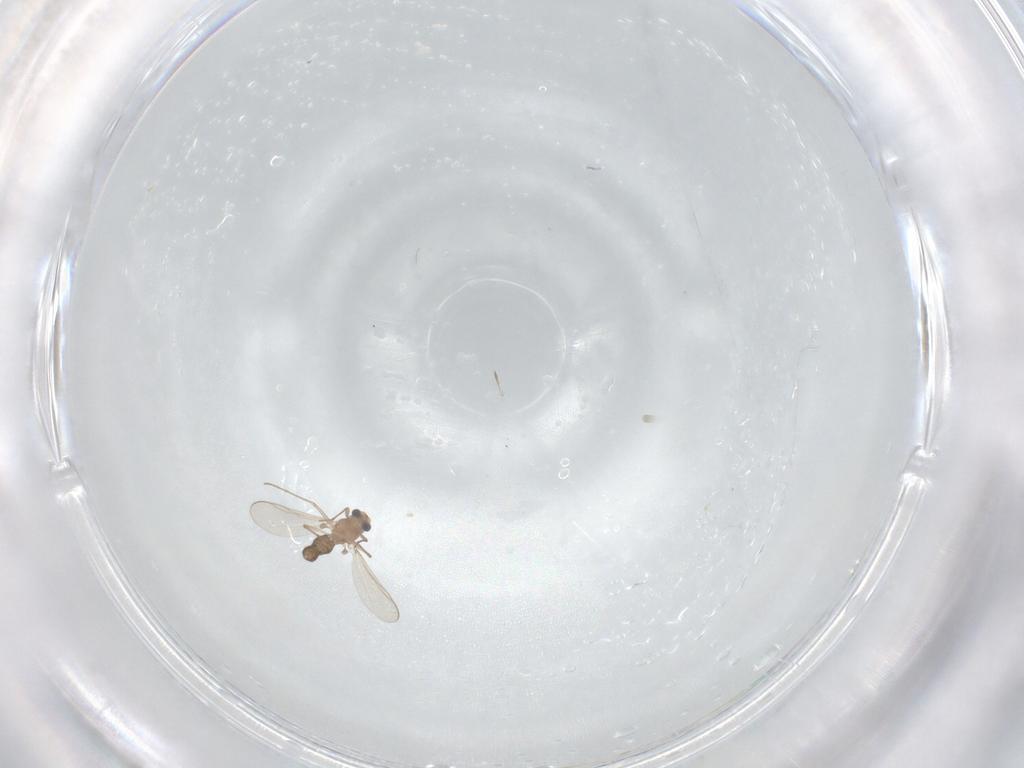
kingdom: Animalia
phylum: Arthropoda
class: Insecta
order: Diptera
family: Chironomidae
